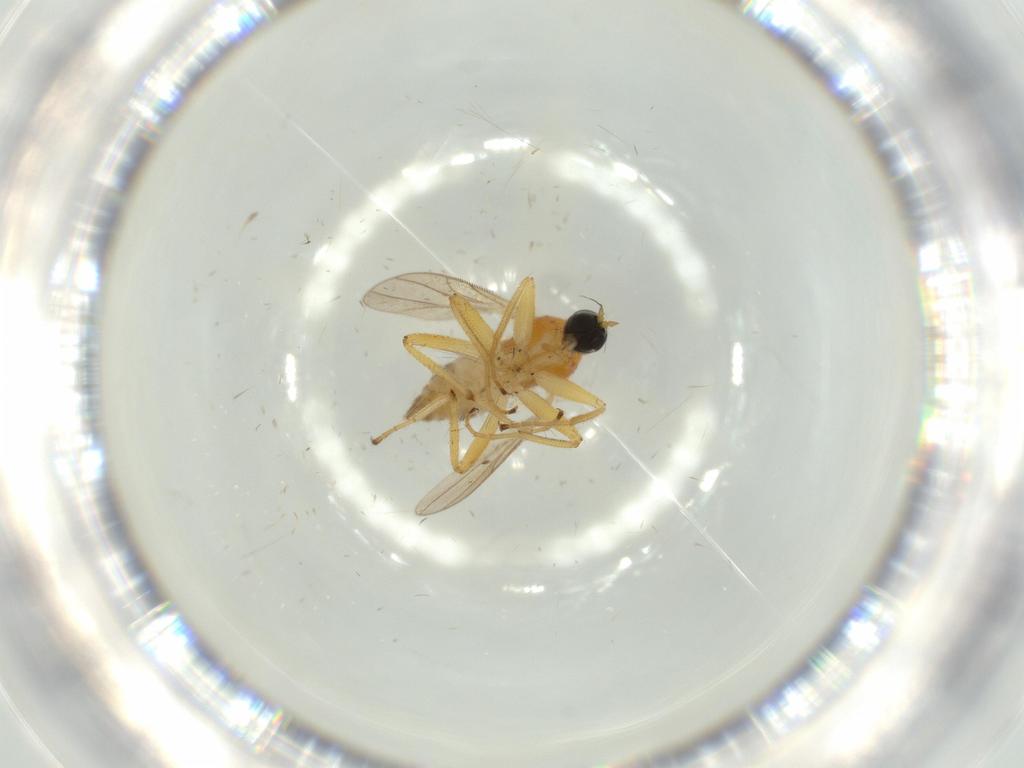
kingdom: Animalia
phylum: Arthropoda
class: Insecta
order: Diptera
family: Hybotidae
